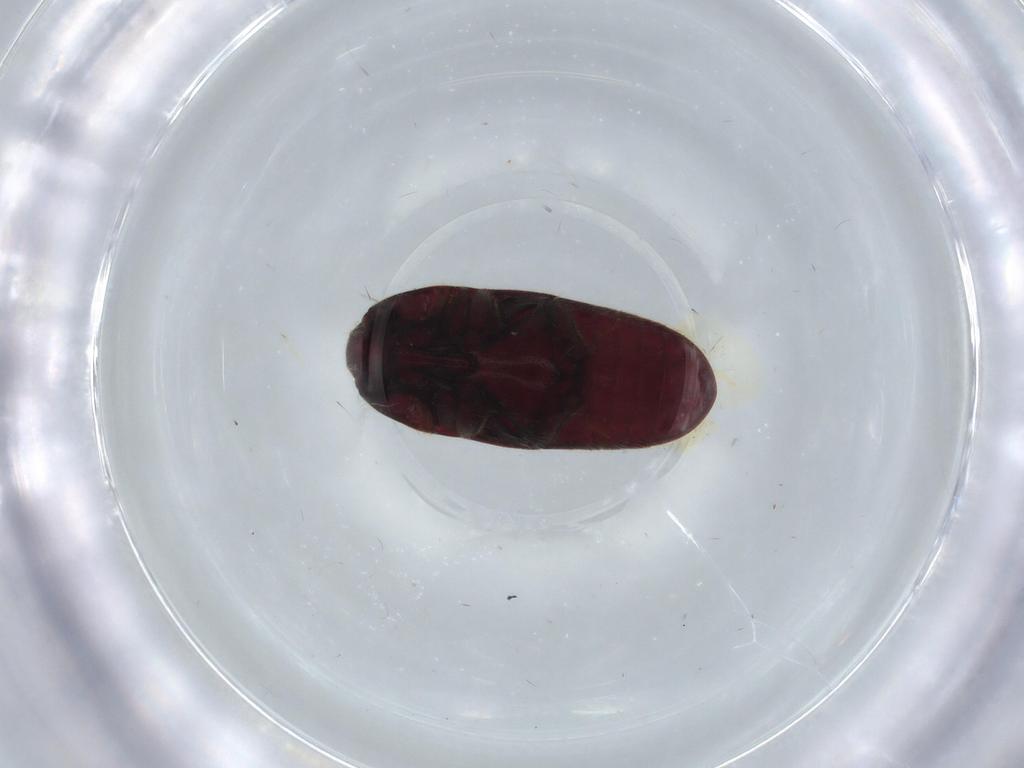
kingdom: Animalia
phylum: Arthropoda
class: Insecta
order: Coleoptera
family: Throscidae
